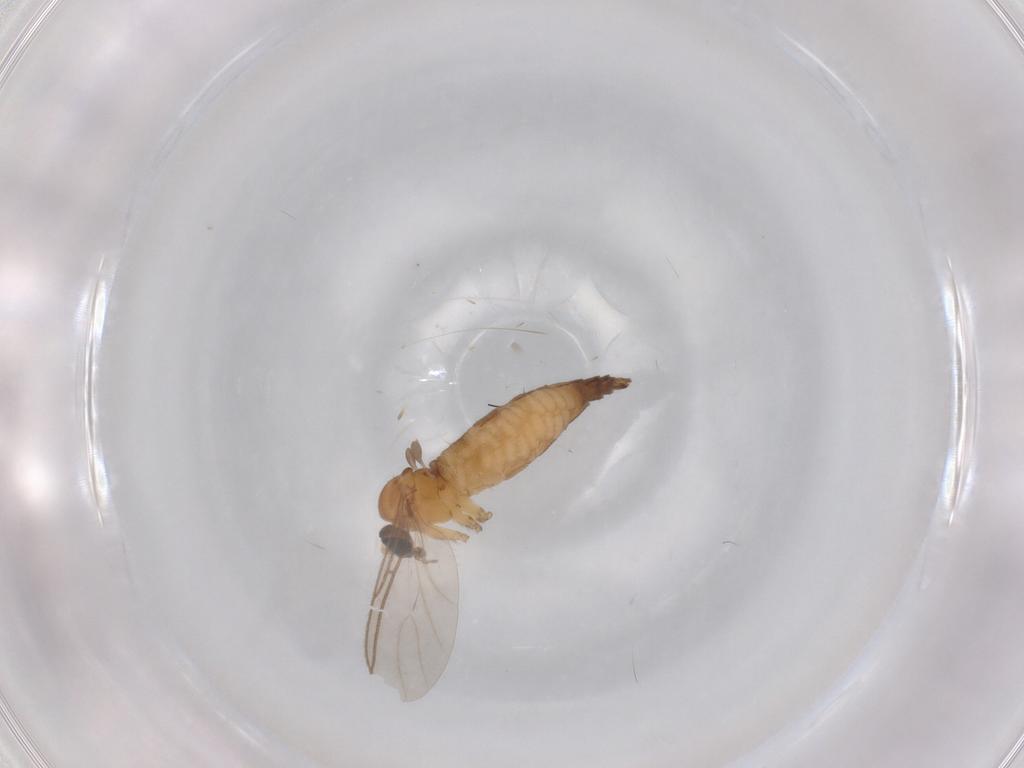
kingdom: Animalia
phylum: Arthropoda
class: Insecta
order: Diptera
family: Sciaridae
